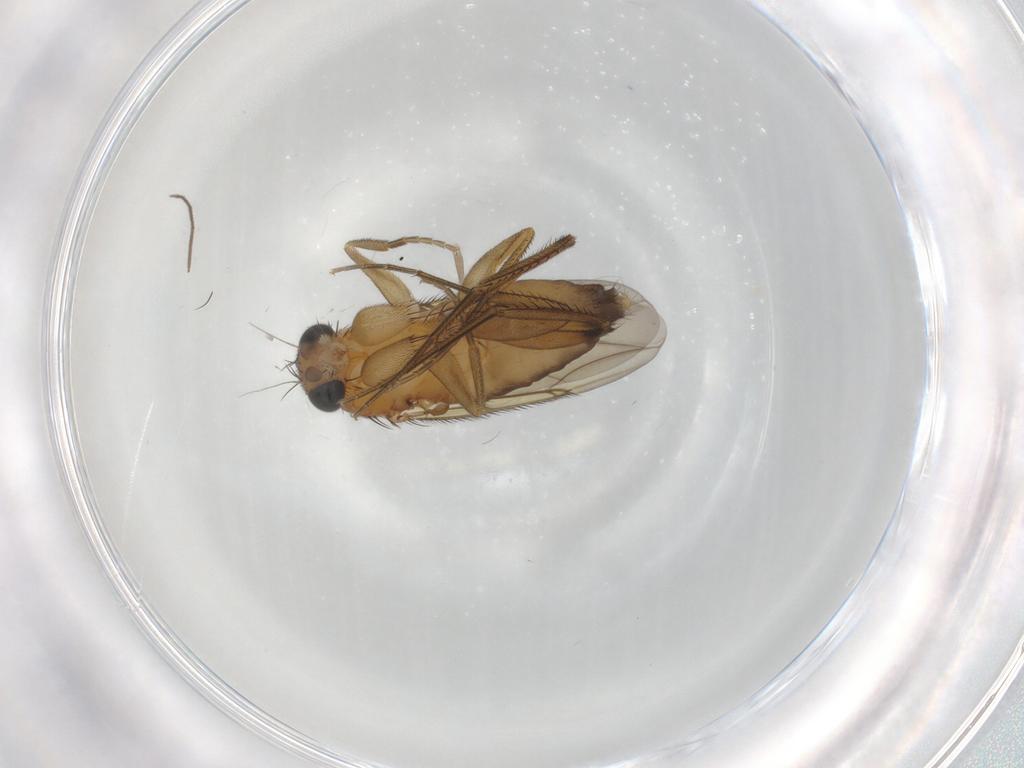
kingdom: Animalia
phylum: Arthropoda
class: Insecta
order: Diptera
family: Phoridae
